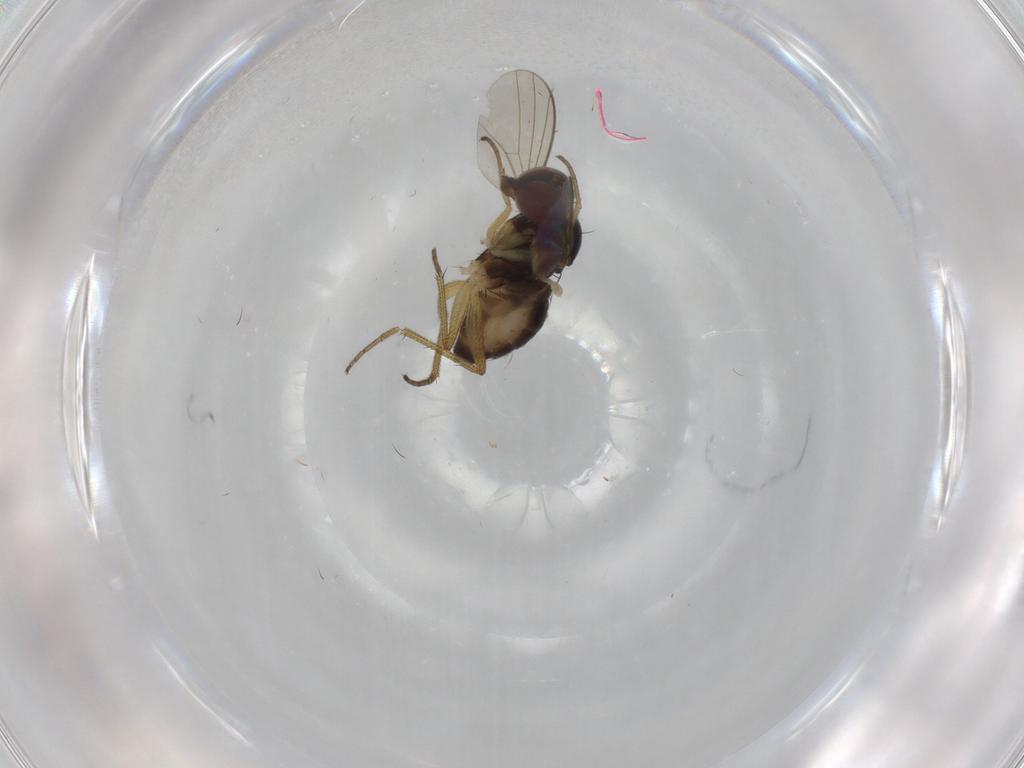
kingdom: Animalia
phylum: Arthropoda
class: Insecta
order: Diptera
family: Dolichopodidae
